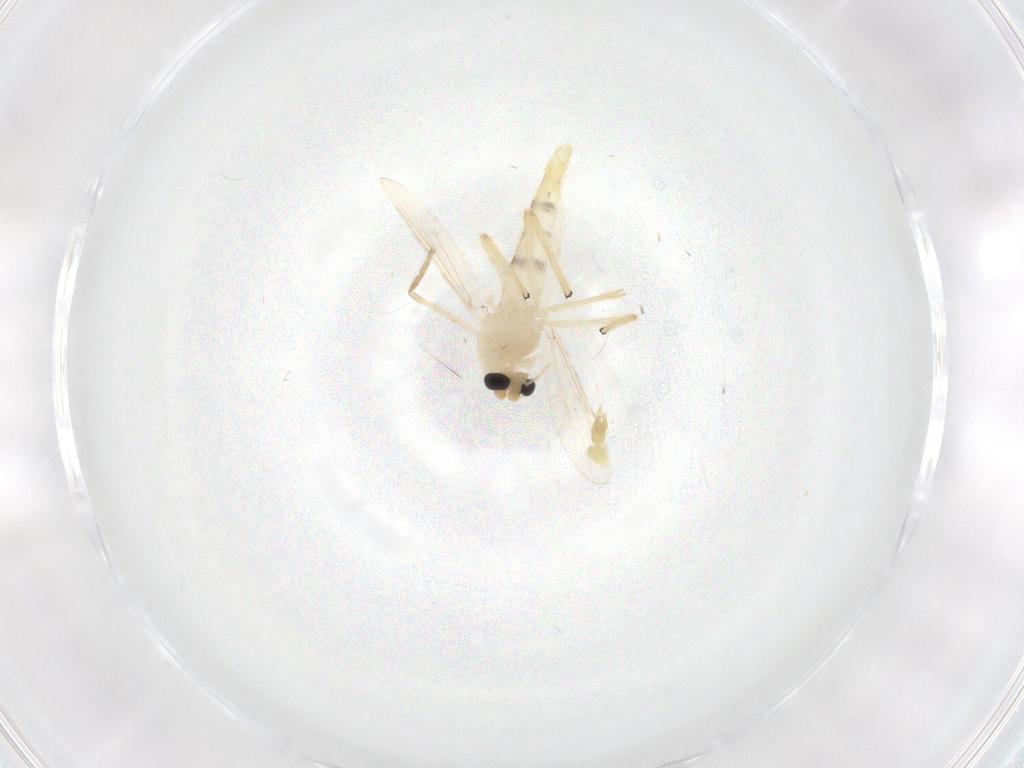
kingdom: Animalia
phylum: Arthropoda
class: Insecta
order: Diptera
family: Chironomidae
